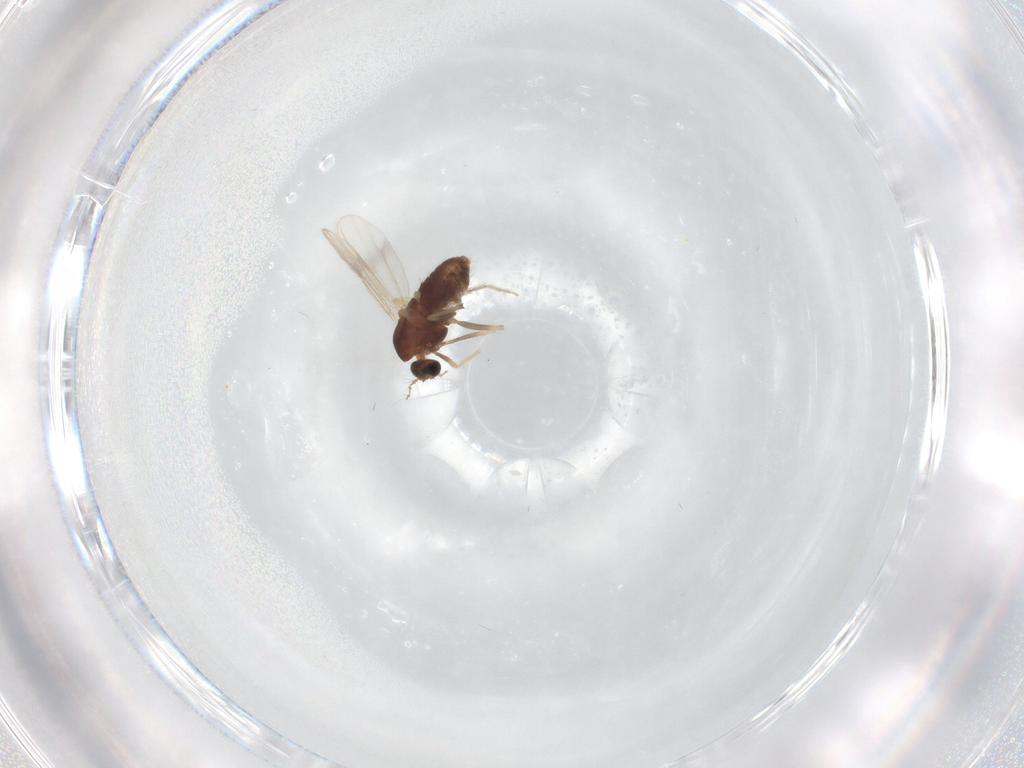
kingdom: Animalia
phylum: Arthropoda
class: Insecta
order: Diptera
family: Chironomidae
